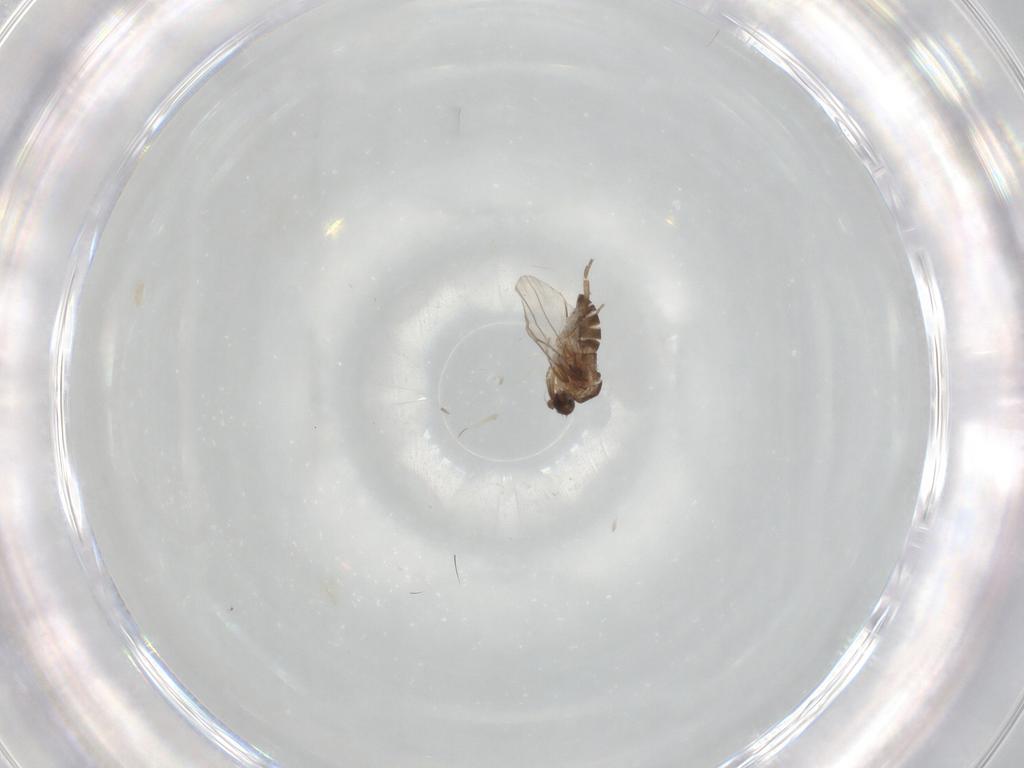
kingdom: Animalia
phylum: Arthropoda
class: Insecta
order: Diptera
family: Phoridae
